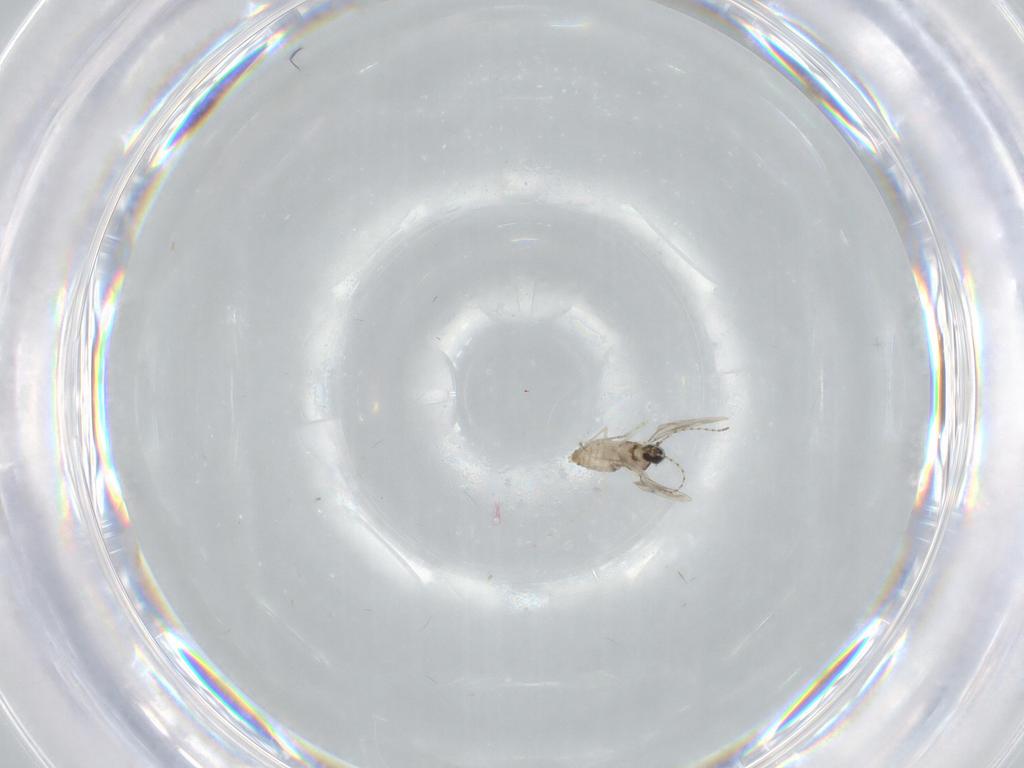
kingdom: Animalia
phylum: Arthropoda
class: Insecta
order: Diptera
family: Cecidomyiidae
